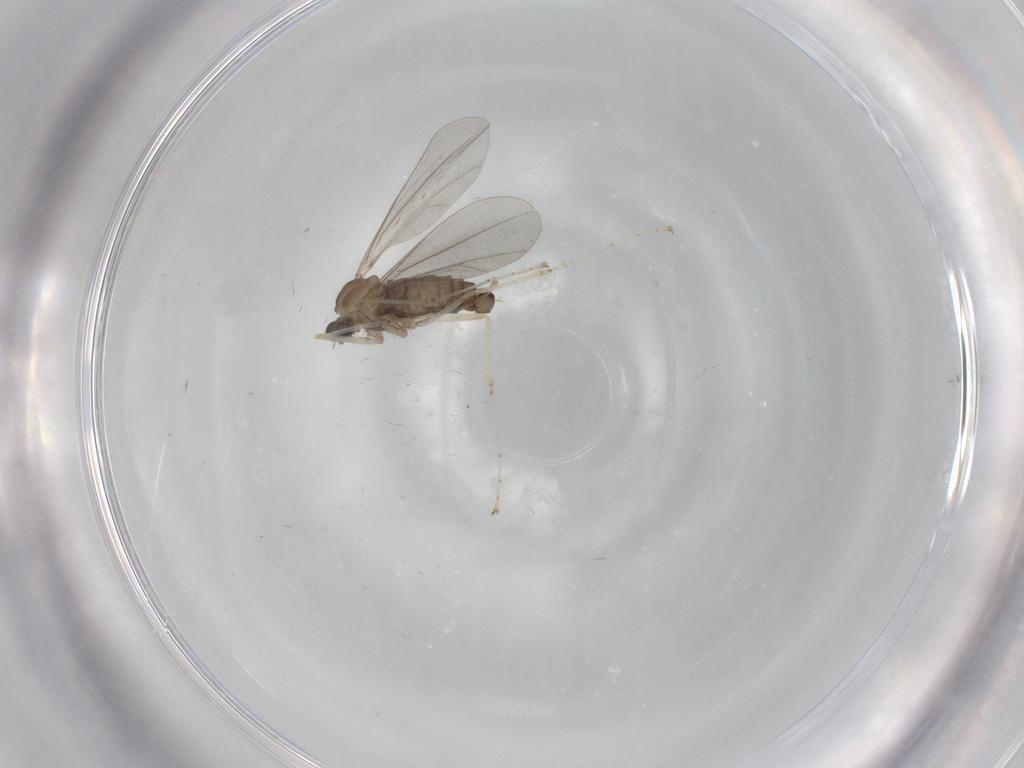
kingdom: Animalia
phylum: Arthropoda
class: Insecta
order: Diptera
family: Cecidomyiidae
